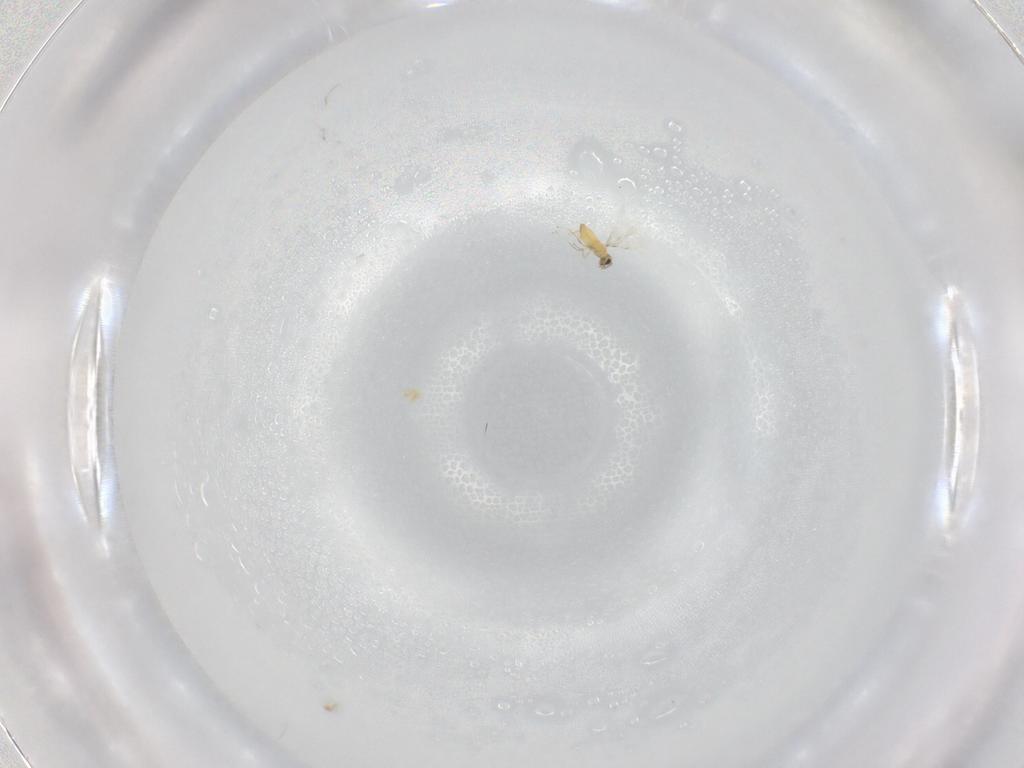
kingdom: Animalia
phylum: Arthropoda
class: Insecta
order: Hymenoptera
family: Trichogrammatidae
